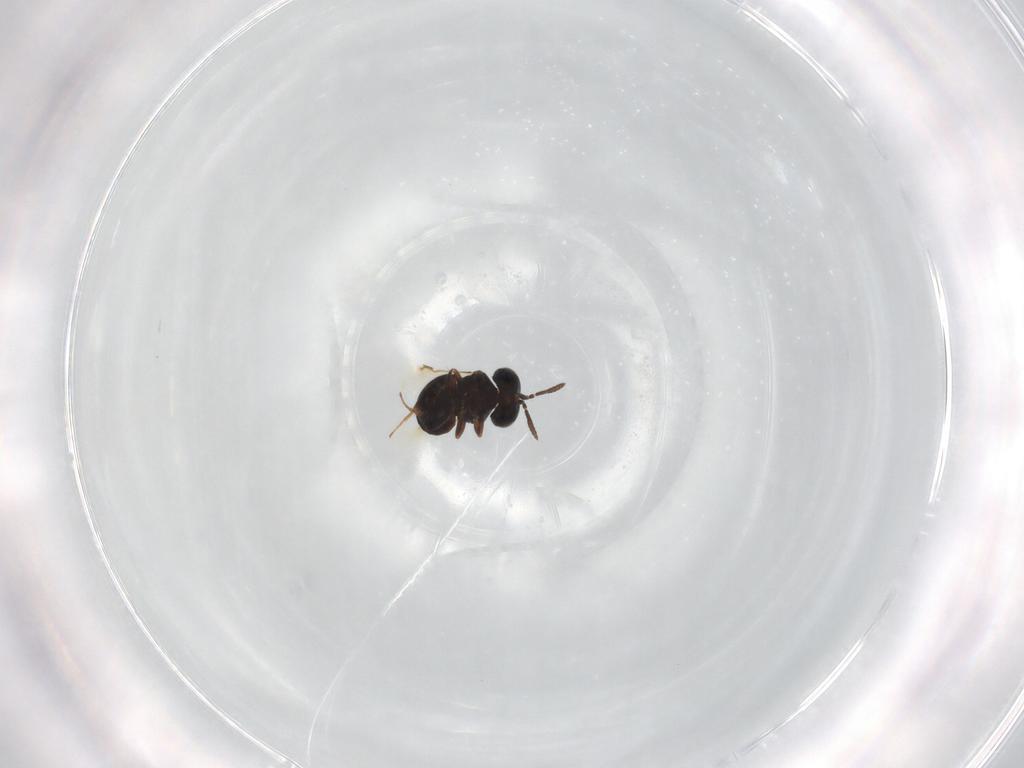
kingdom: Animalia
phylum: Arthropoda
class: Insecta
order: Hymenoptera
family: Scelionidae
